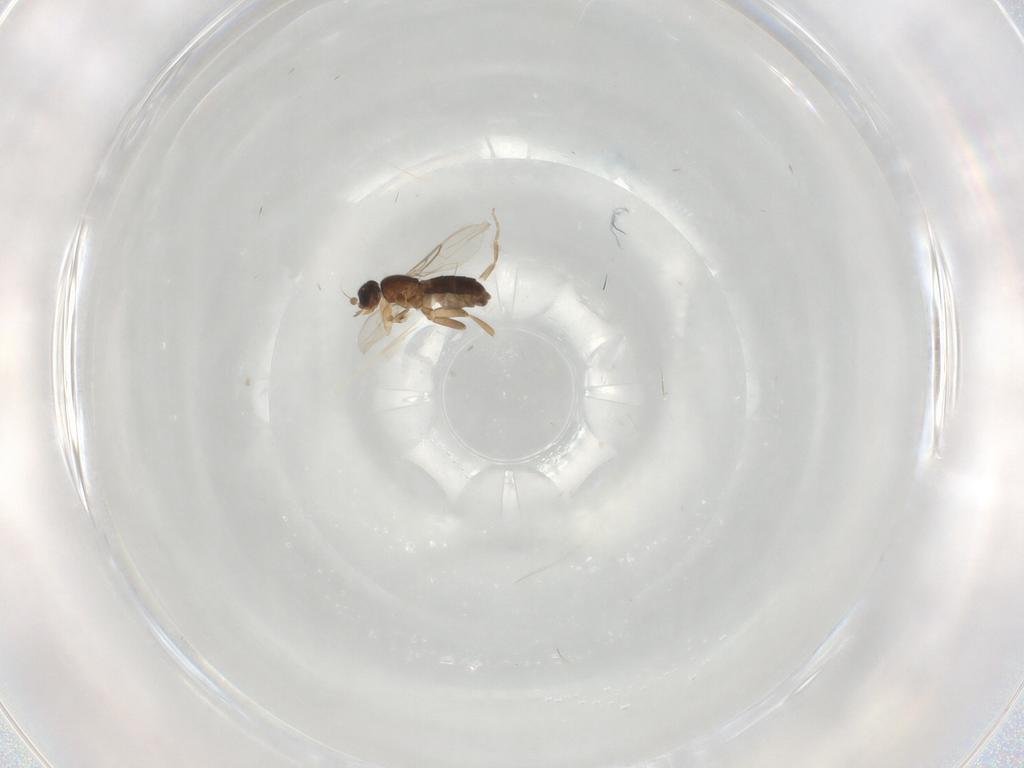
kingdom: Animalia
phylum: Arthropoda
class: Insecta
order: Diptera
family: Phoridae
